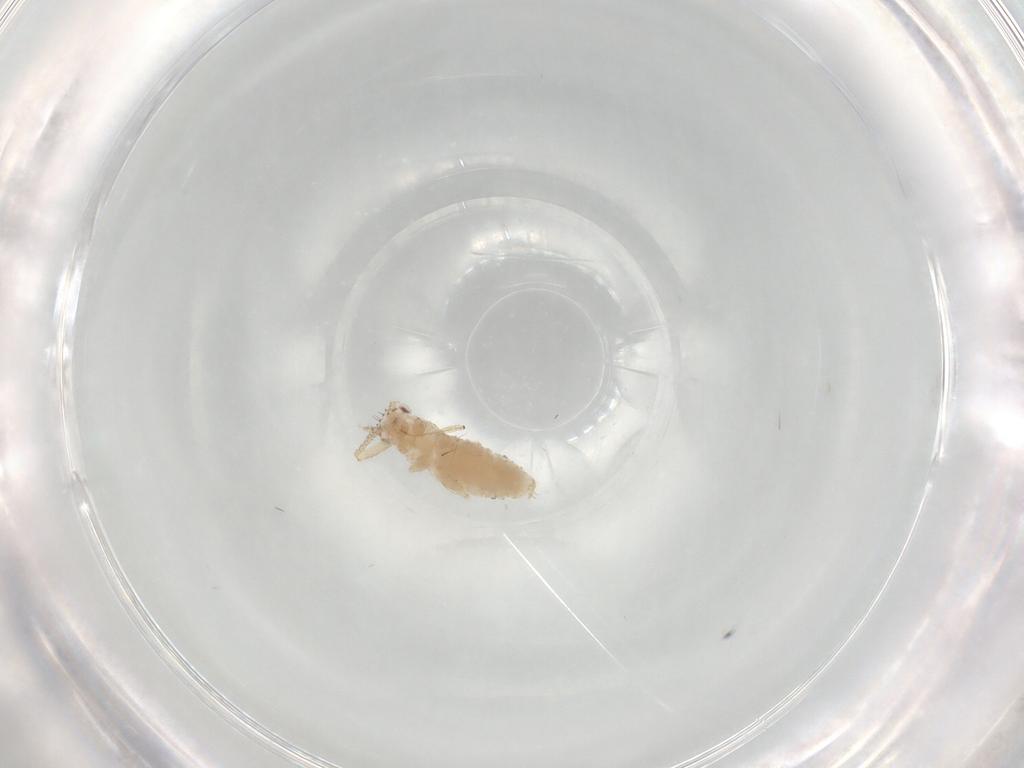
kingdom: Animalia
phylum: Arthropoda
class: Insecta
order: Hemiptera
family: Aphididae
